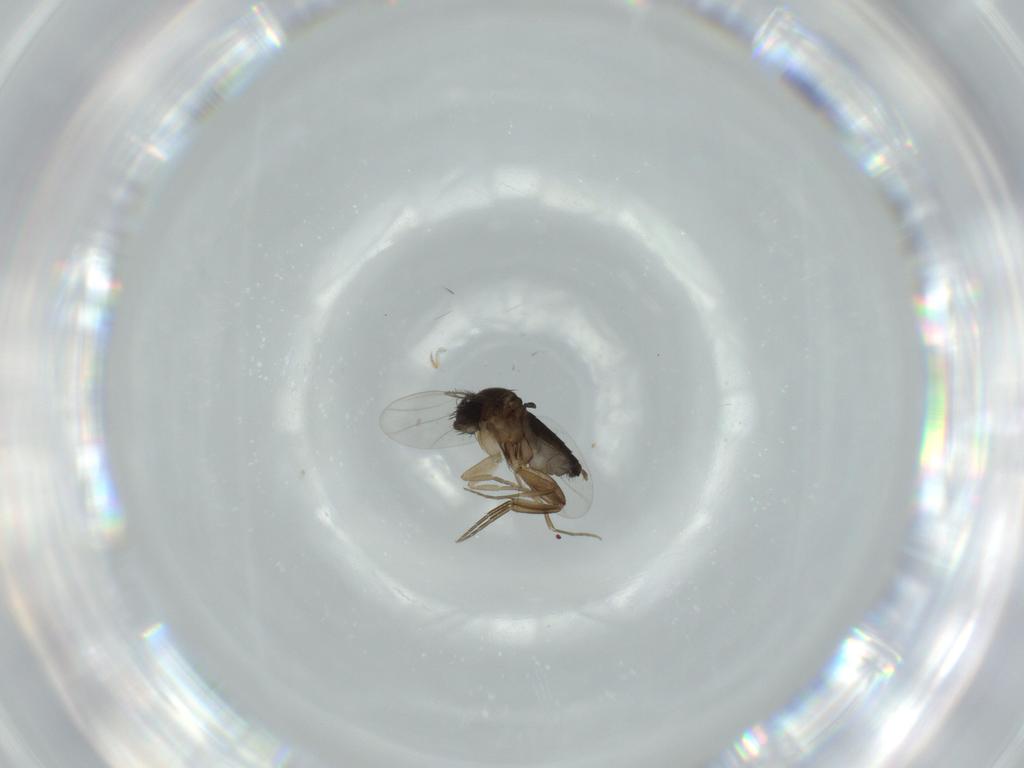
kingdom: Animalia
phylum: Arthropoda
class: Insecta
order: Diptera
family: Phoridae
